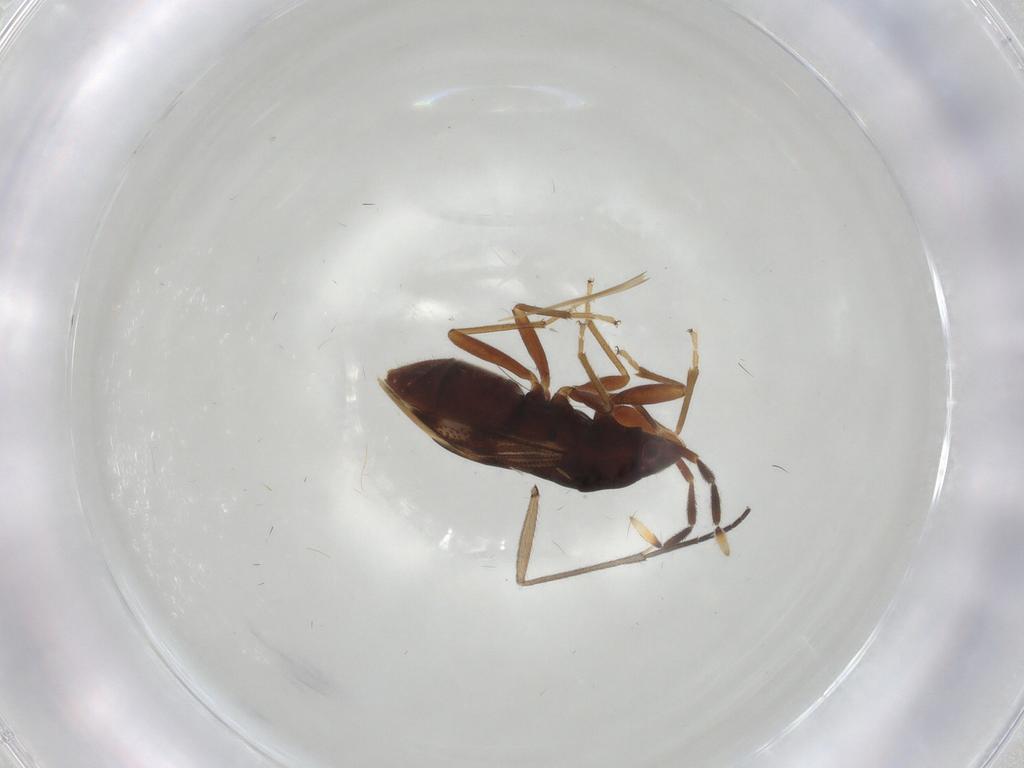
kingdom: Animalia
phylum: Arthropoda
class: Insecta
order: Hemiptera
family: Rhyparochromidae
